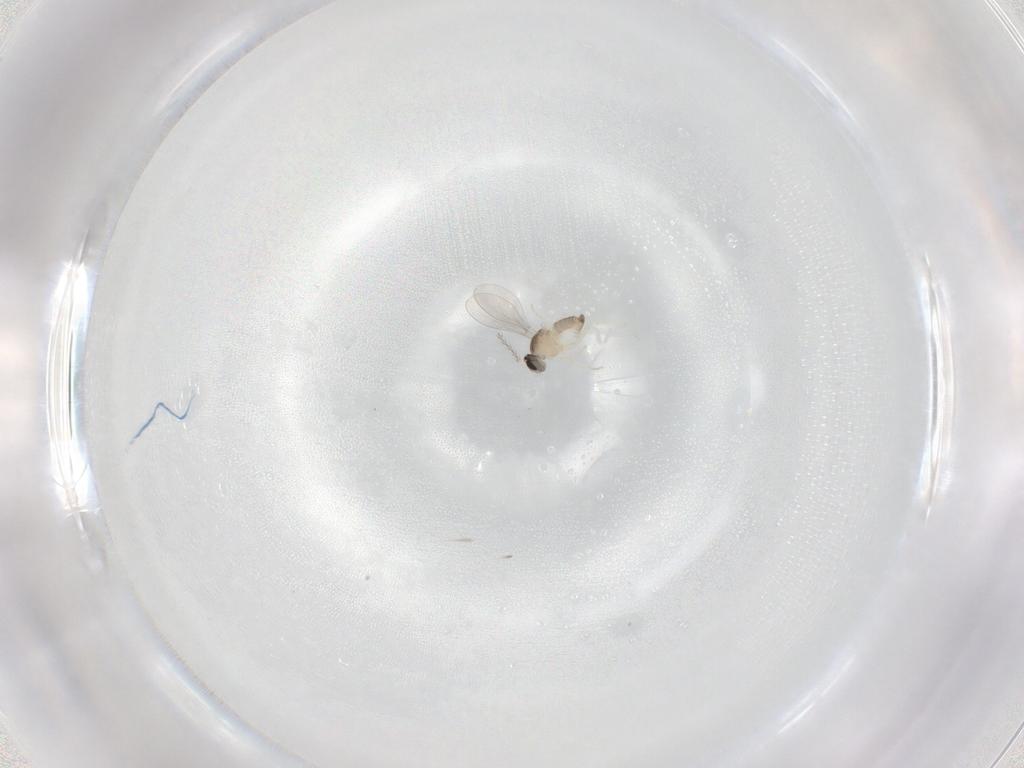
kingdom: Animalia
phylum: Arthropoda
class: Insecta
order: Diptera
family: Cecidomyiidae
